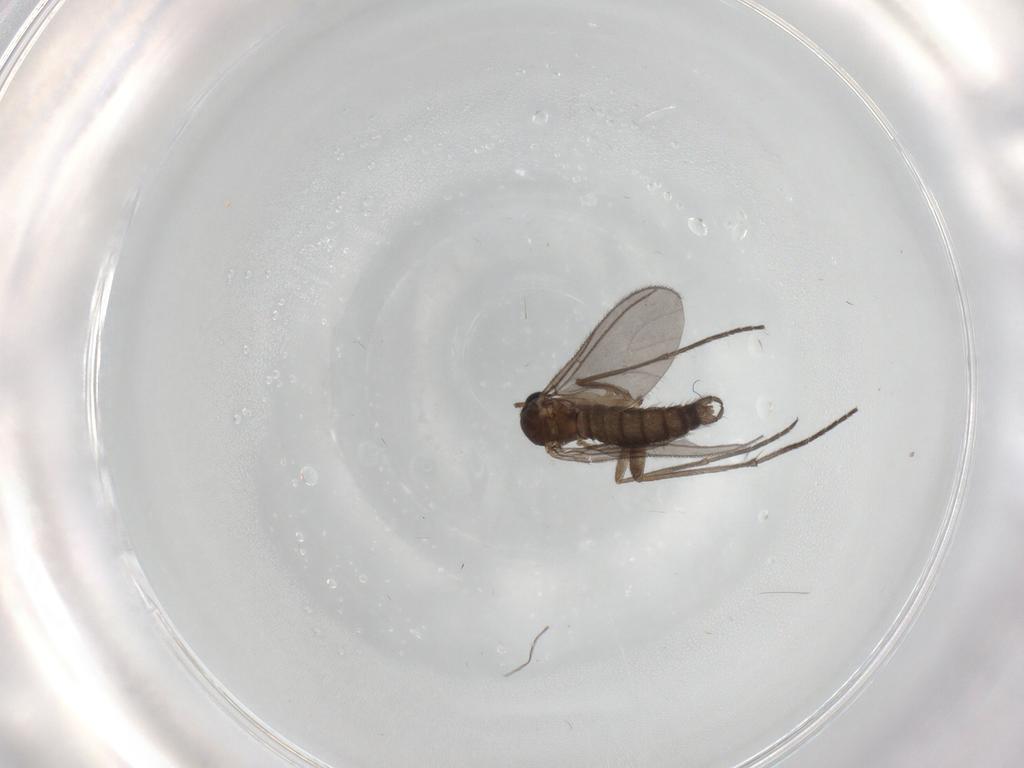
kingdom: Animalia
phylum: Arthropoda
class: Insecta
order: Diptera
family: Sciaridae
